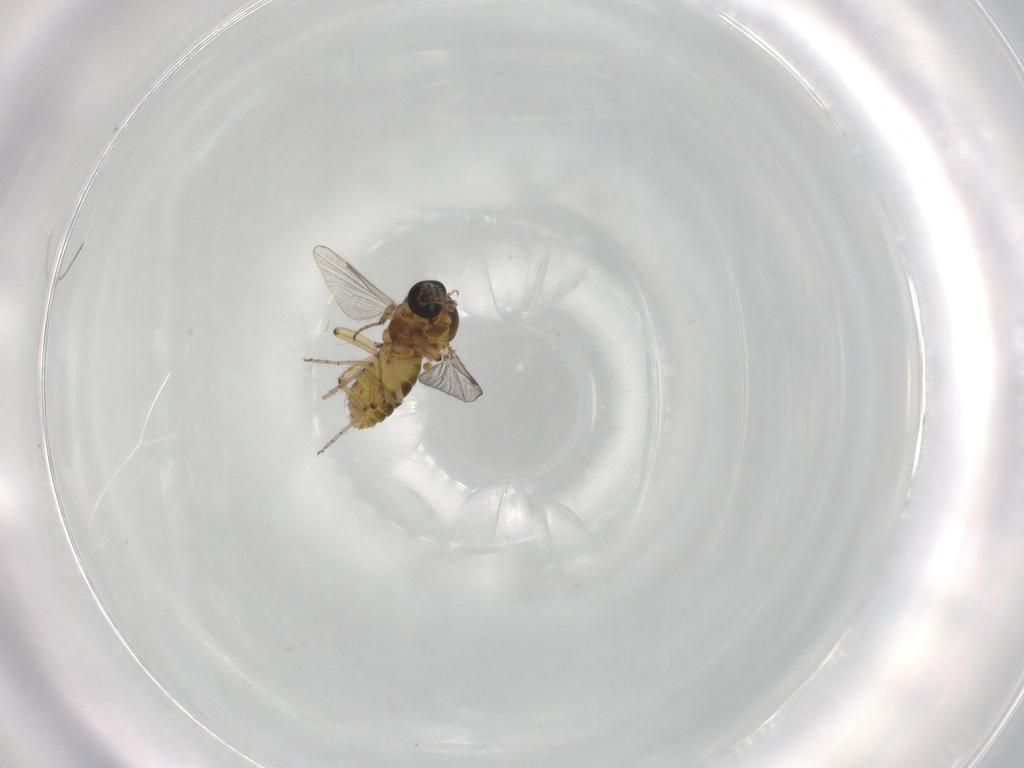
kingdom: Animalia
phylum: Arthropoda
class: Insecta
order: Diptera
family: Ceratopogonidae
